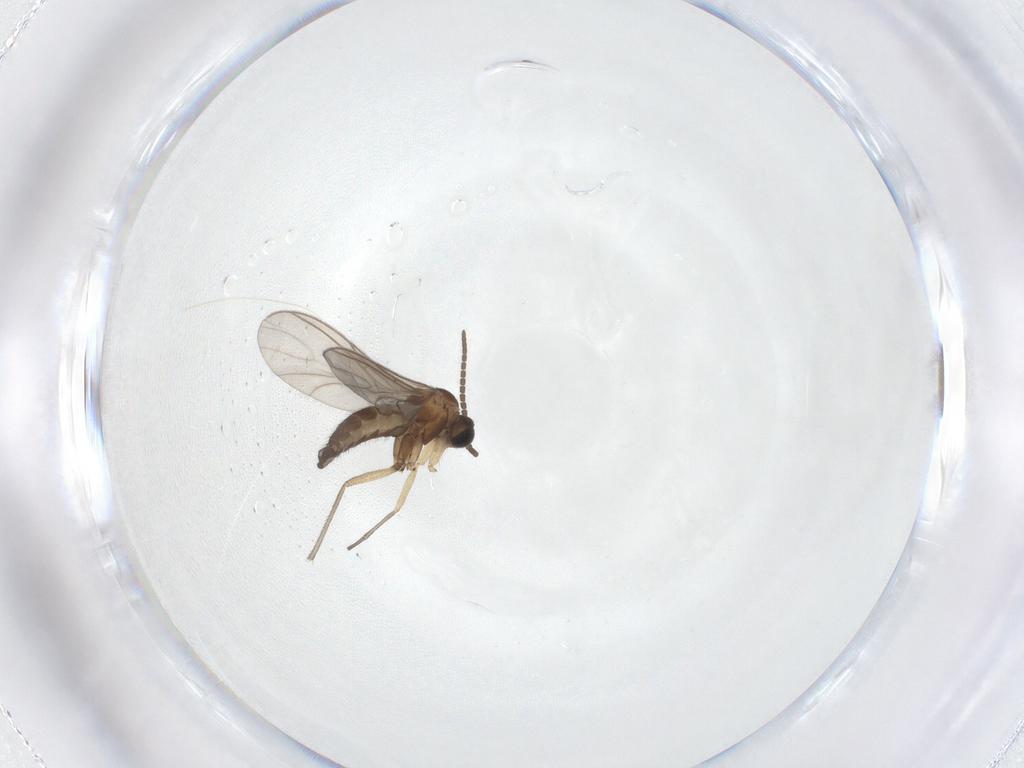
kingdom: Animalia
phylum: Arthropoda
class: Insecta
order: Diptera
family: Sciaridae
